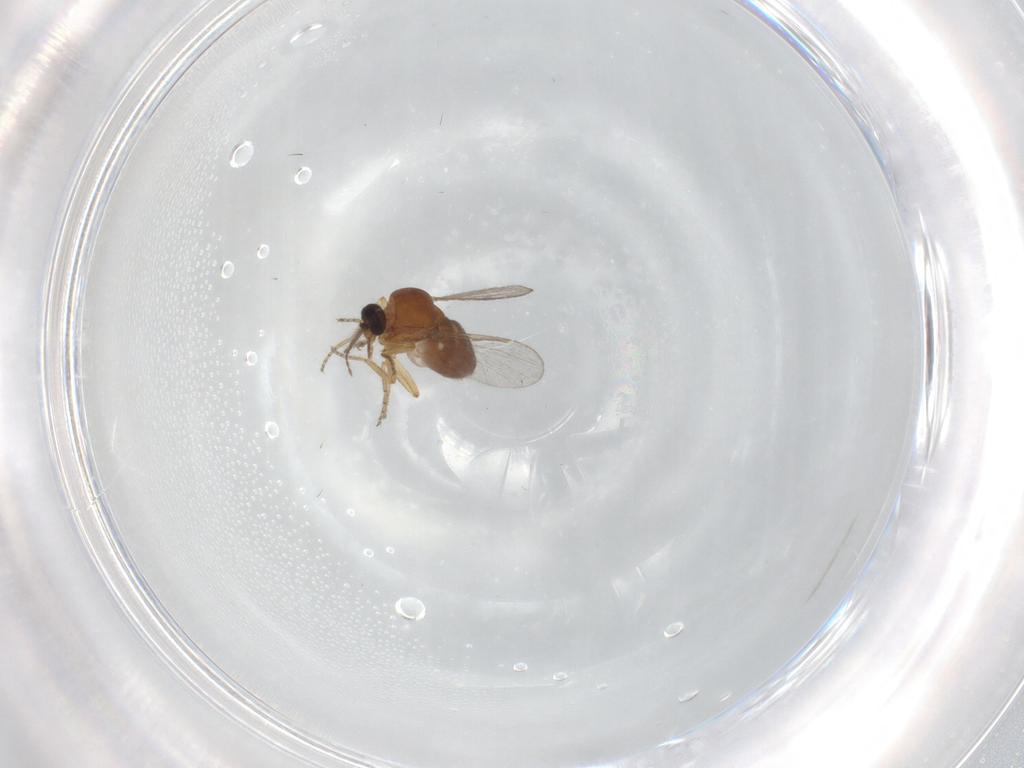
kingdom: Animalia
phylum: Arthropoda
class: Insecta
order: Diptera
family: Ceratopogonidae
